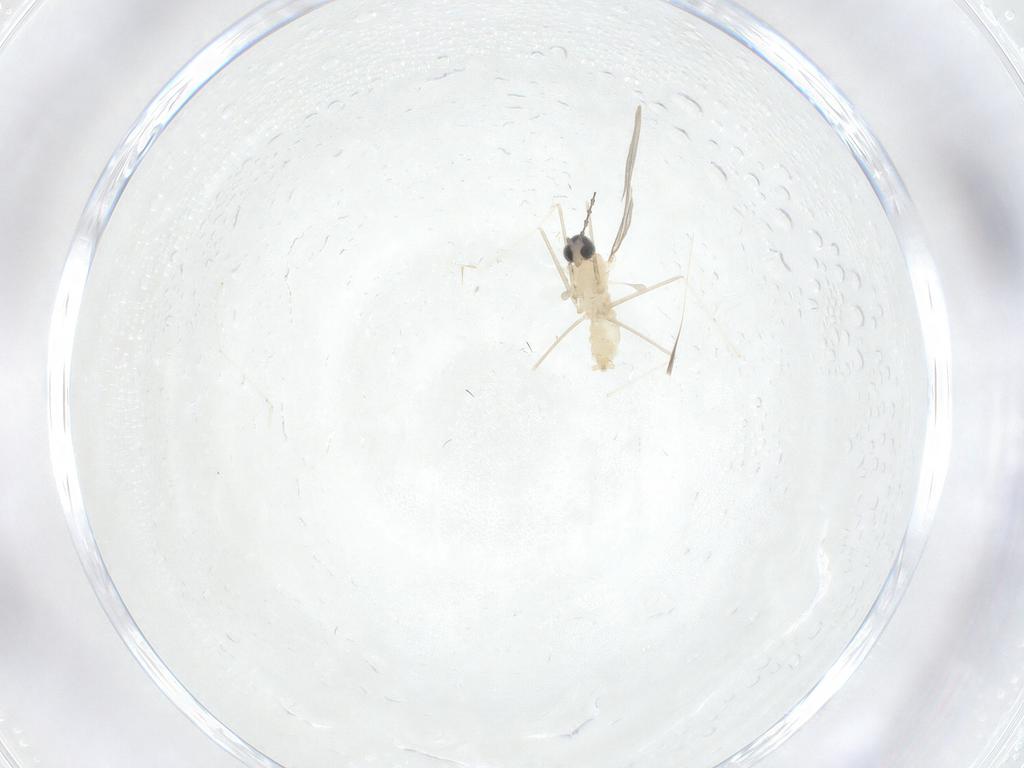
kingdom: Animalia
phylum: Arthropoda
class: Insecta
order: Diptera
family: Cecidomyiidae
